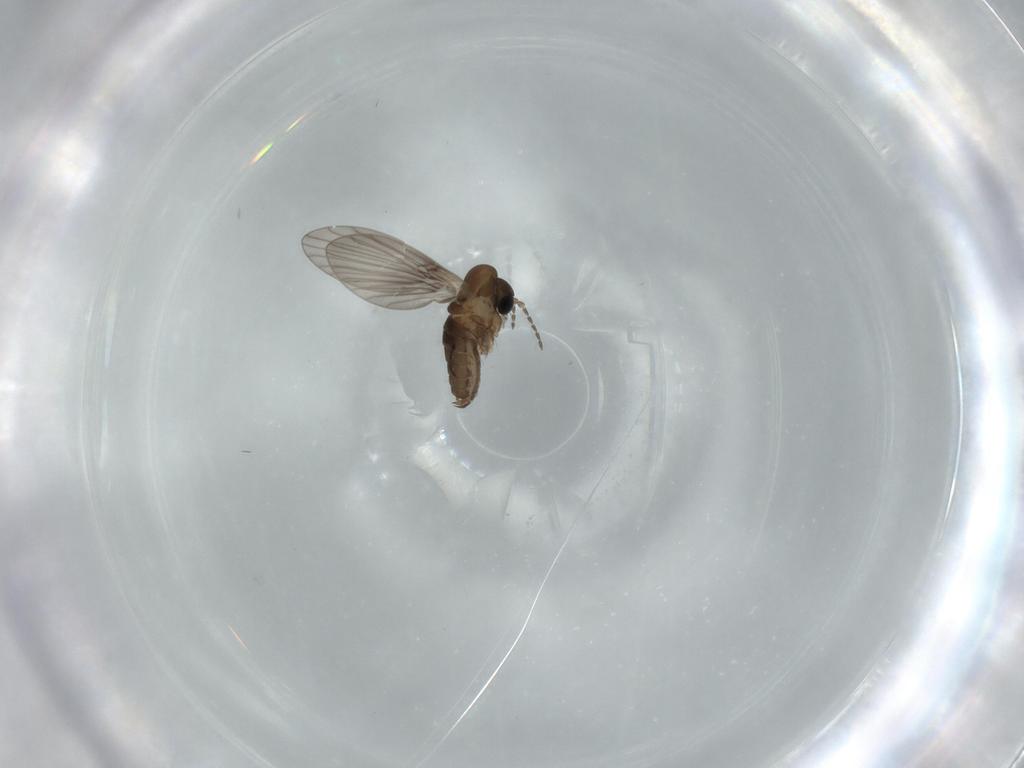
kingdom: Animalia
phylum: Arthropoda
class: Insecta
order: Diptera
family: Psychodidae
